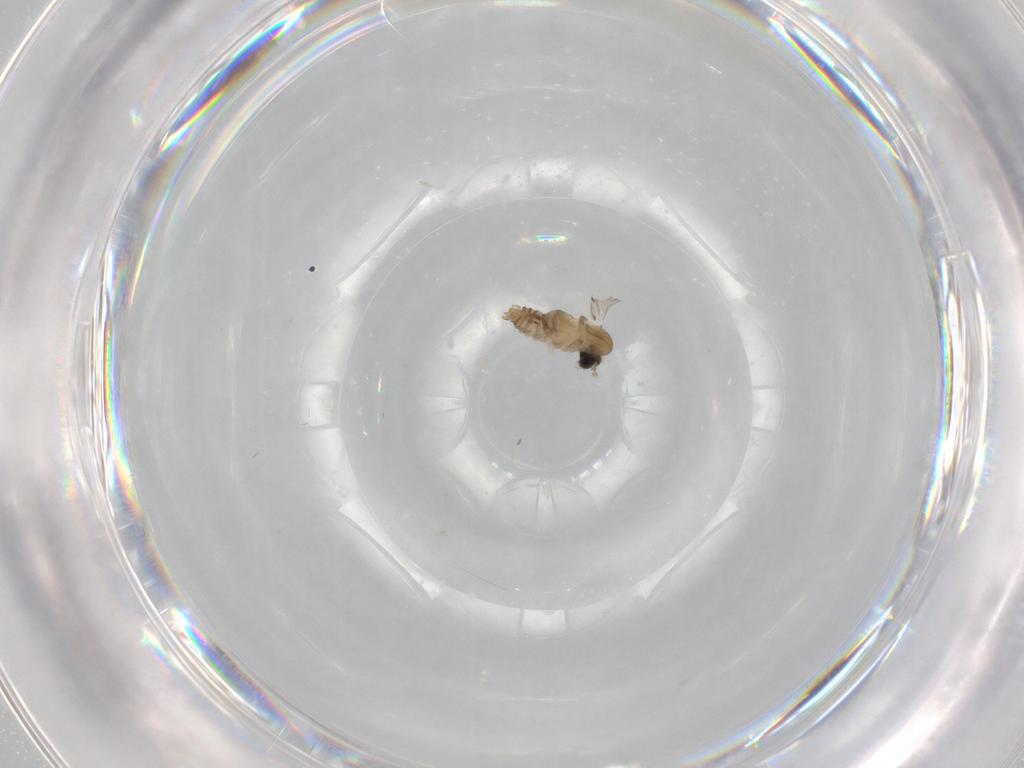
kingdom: Animalia
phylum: Arthropoda
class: Insecta
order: Diptera
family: Psychodidae
